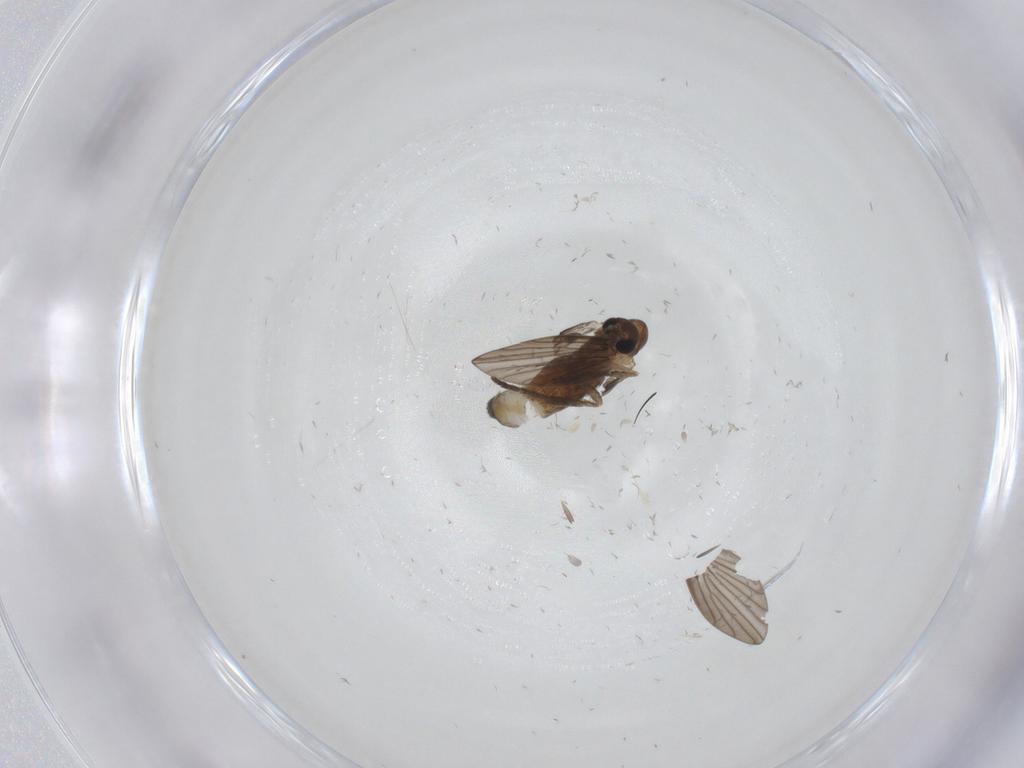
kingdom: Animalia
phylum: Arthropoda
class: Insecta
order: Diptera
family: Psychodidae
